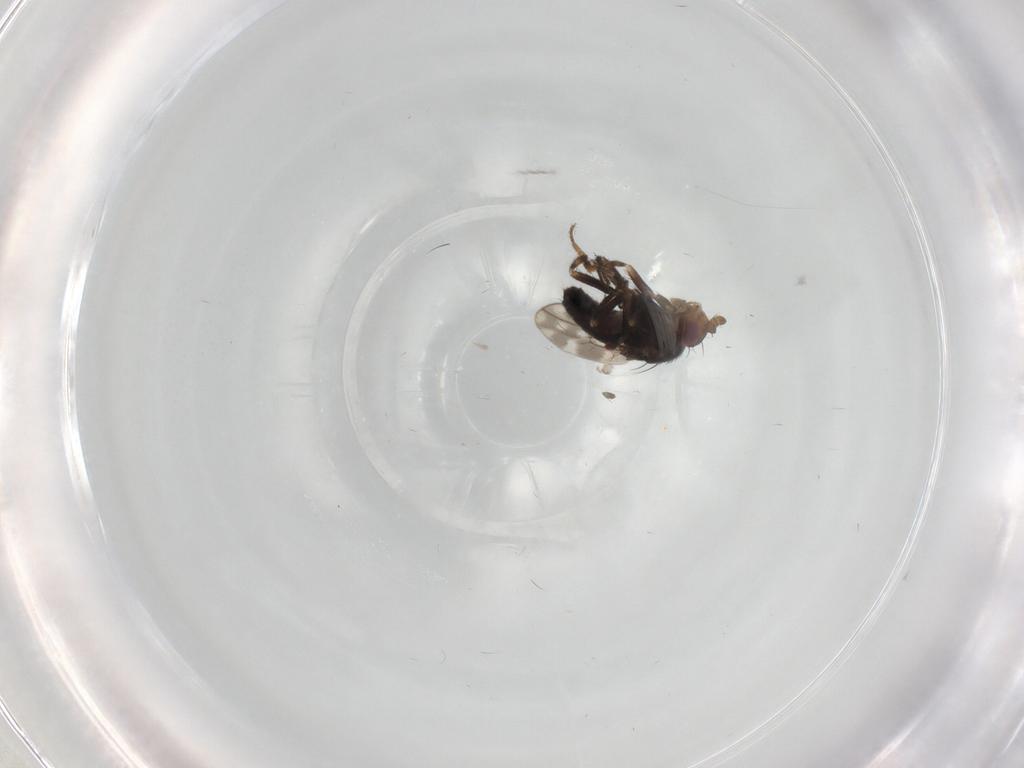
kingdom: Animalia
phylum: Arthropoda
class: Insecta
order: Diptera
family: Sphaeroceridae
